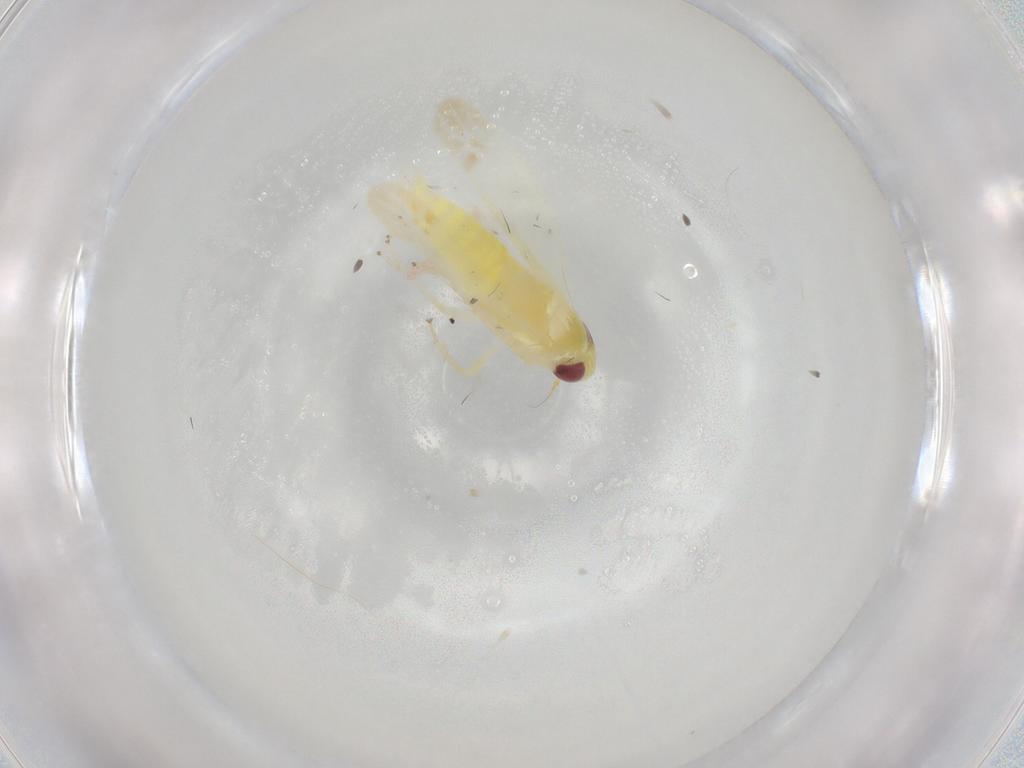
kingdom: Animalia
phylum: Arthropoda
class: Insecta
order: Hemiptera
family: Cicadellidae
